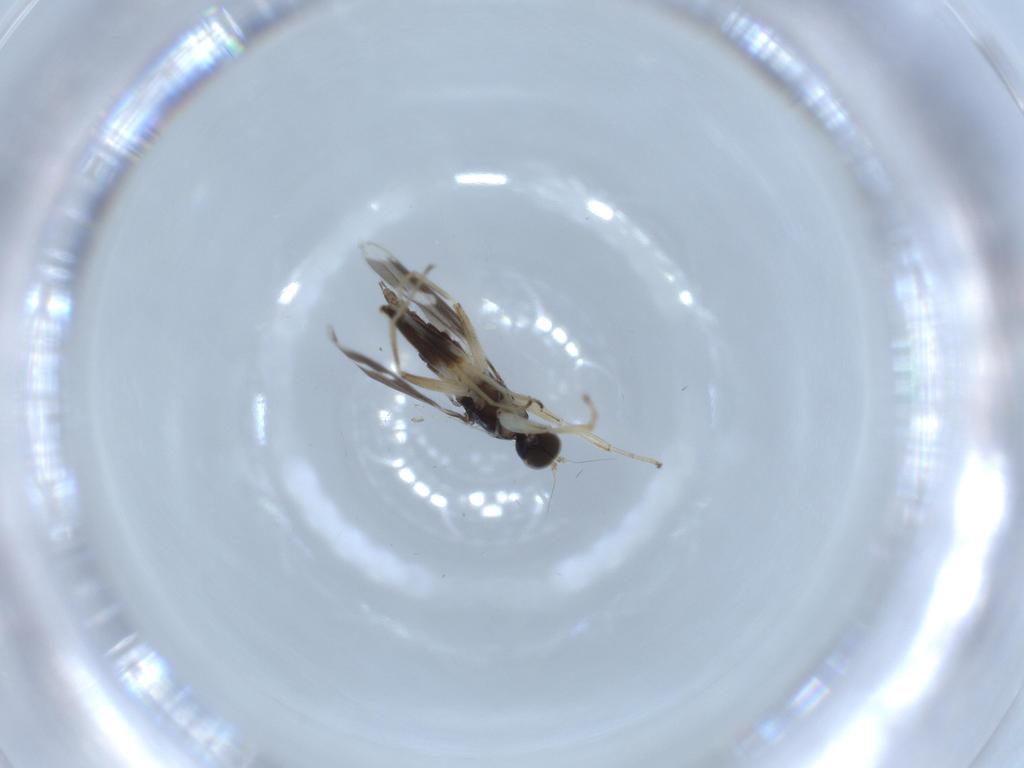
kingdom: Animalia
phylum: Arthropoda
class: Insecta
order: Diptera
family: Hybotidae
